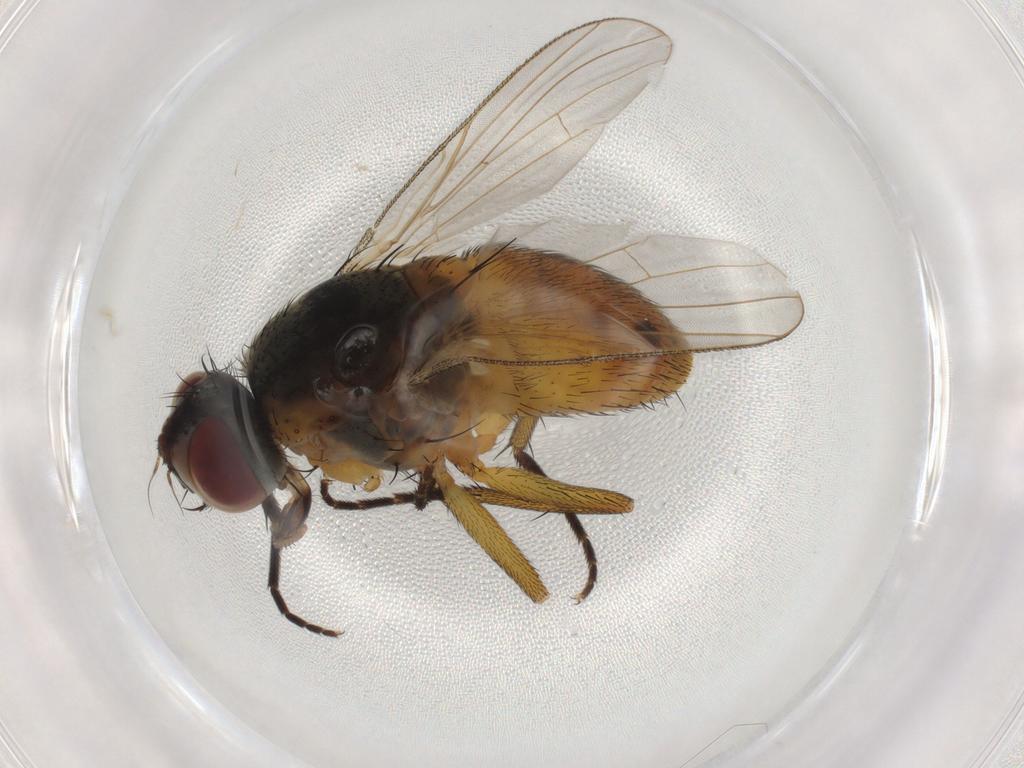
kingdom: Animalia
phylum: Arthropoda
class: Insecta
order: Diptera
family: Muscidae
